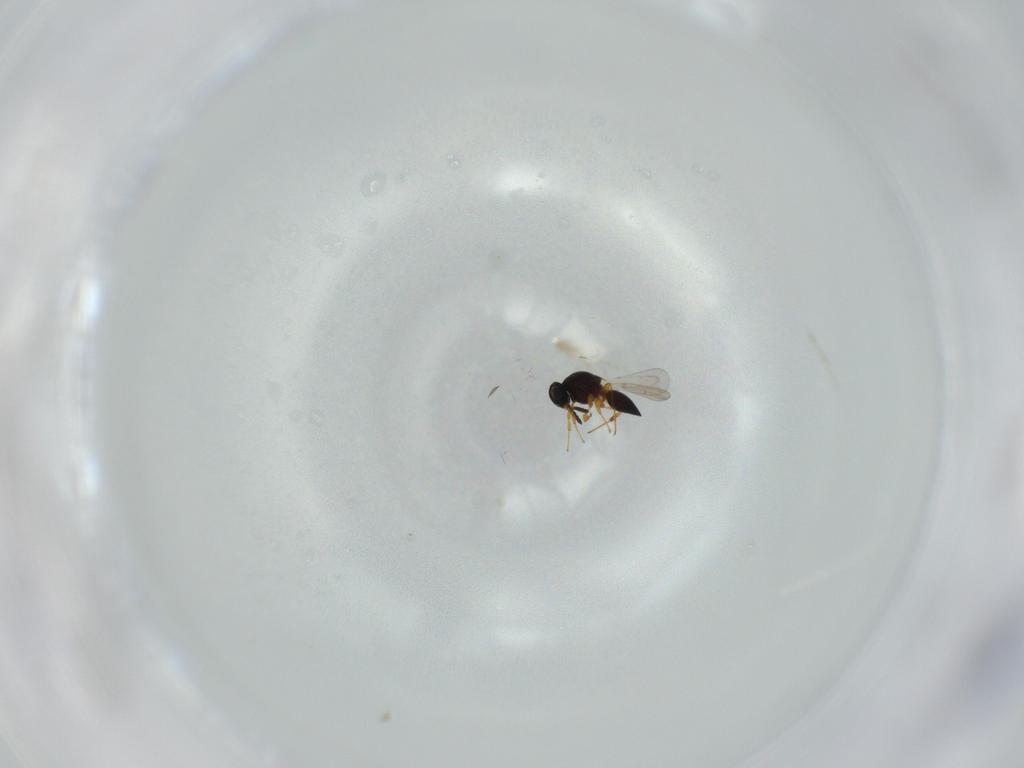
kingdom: Animalia
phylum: Arthropoda
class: Insecta
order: Hymenoptera
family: Platygastridae
